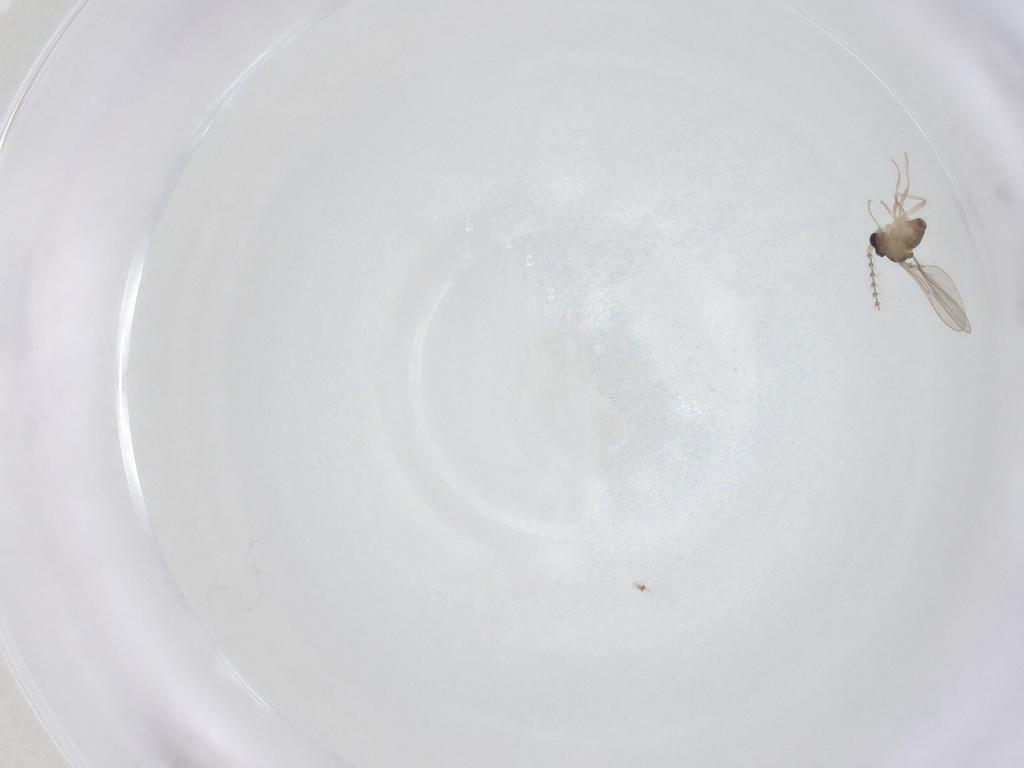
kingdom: Animalia
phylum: Arthropoda
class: Insecta
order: Diptera
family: Cecidomyiidae
